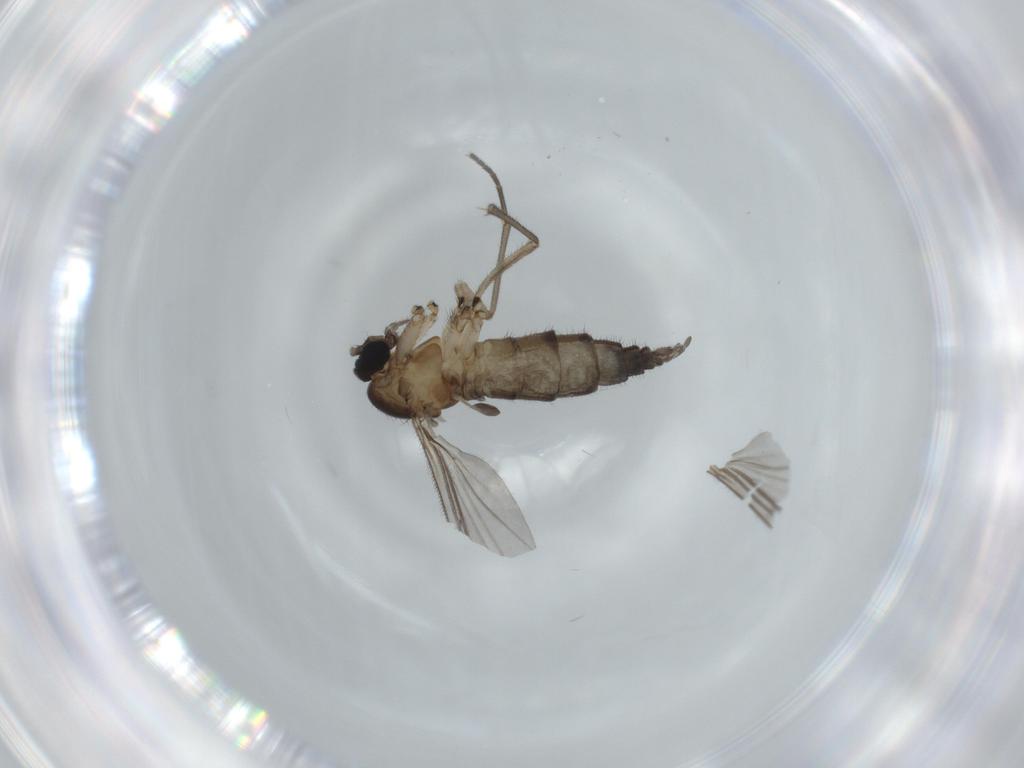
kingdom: Animalia
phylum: Arthropoda
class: Insecta
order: Diptera
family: Sciaridae
